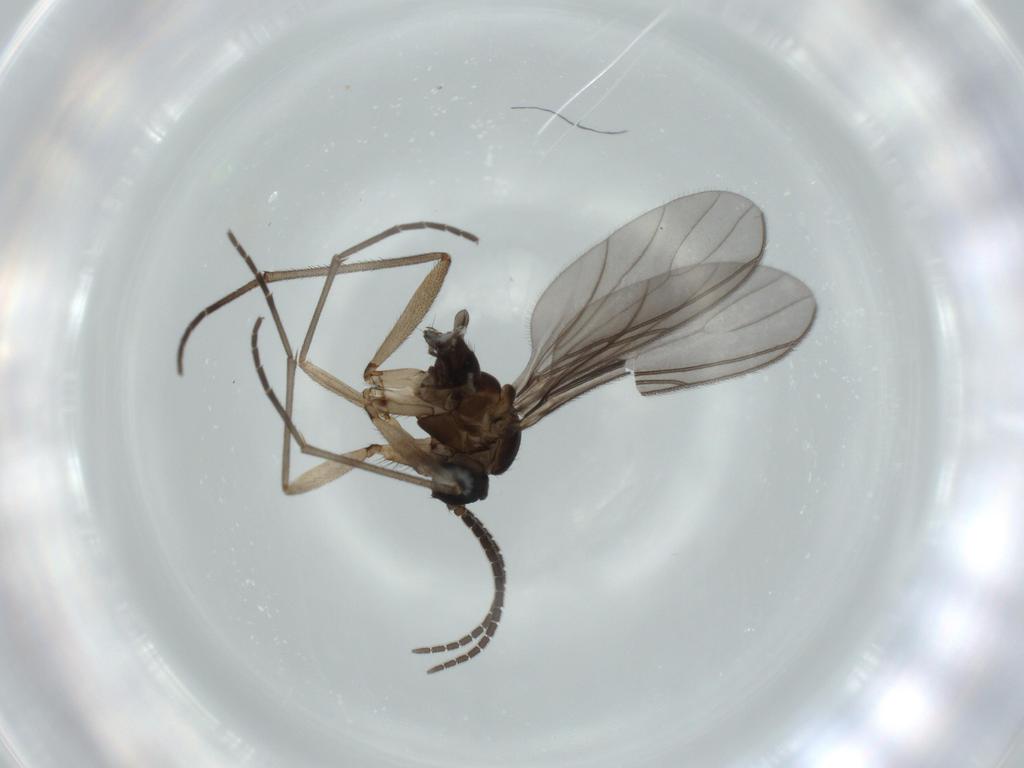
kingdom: Animalia
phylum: Arthropoda
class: Insecta
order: Diptera
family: Sciaridae
